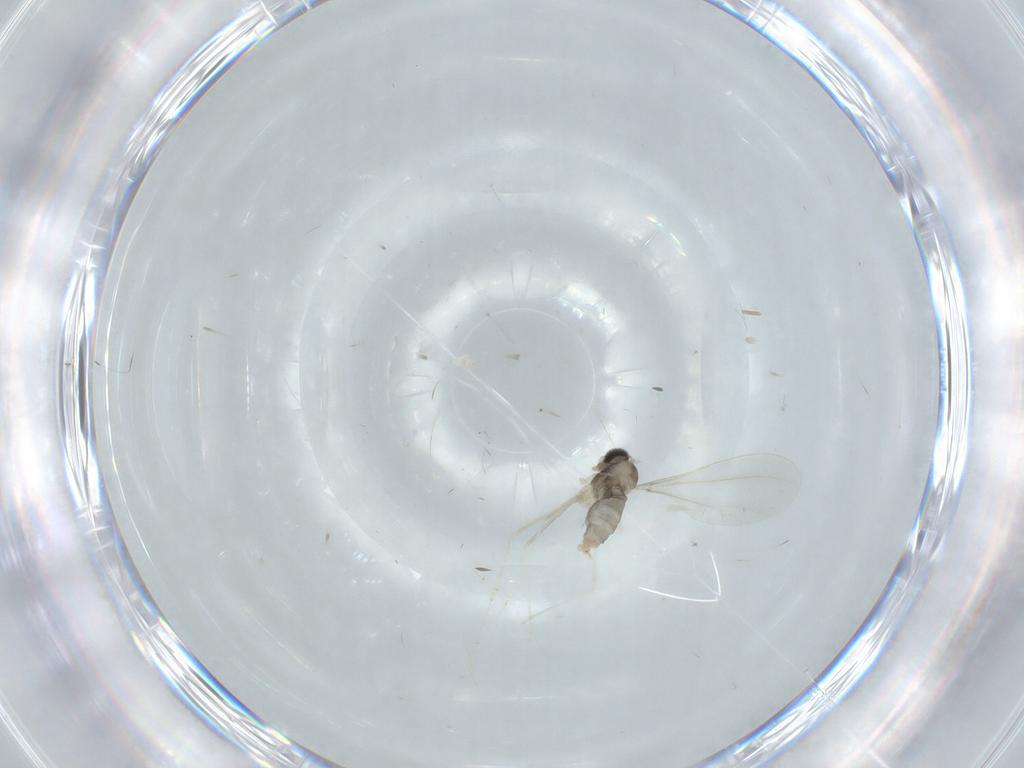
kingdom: Animalia
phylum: Arthropoda
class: Insecta
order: Diptera
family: Cecidomyiidae
